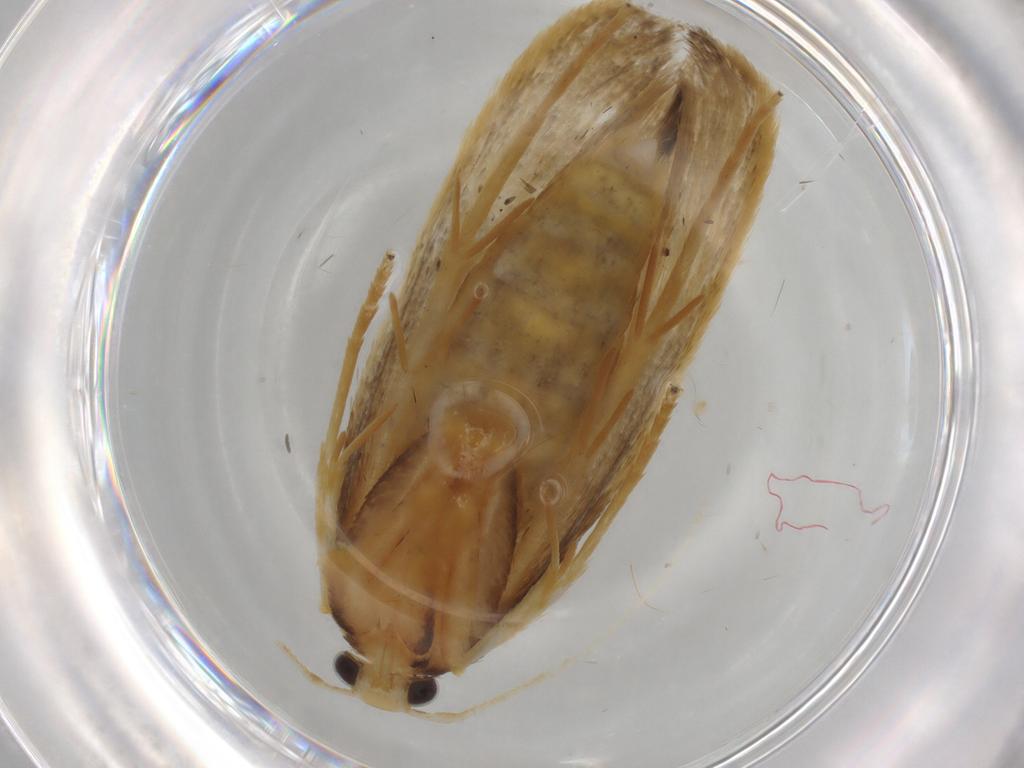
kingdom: Animalia
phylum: Arthropoda
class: Insecta
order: Lepidoptera
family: Lecithoceridae
